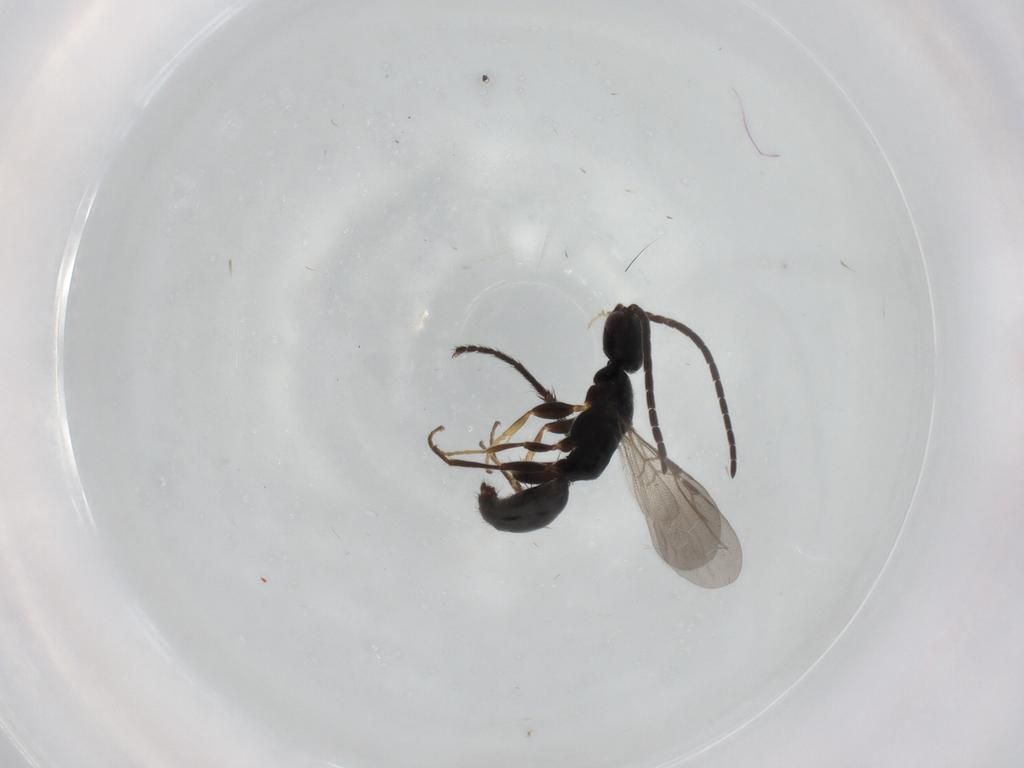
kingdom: Animalia
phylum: Arthropoda
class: Insecta
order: Hymenoptera
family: Bethylidae
